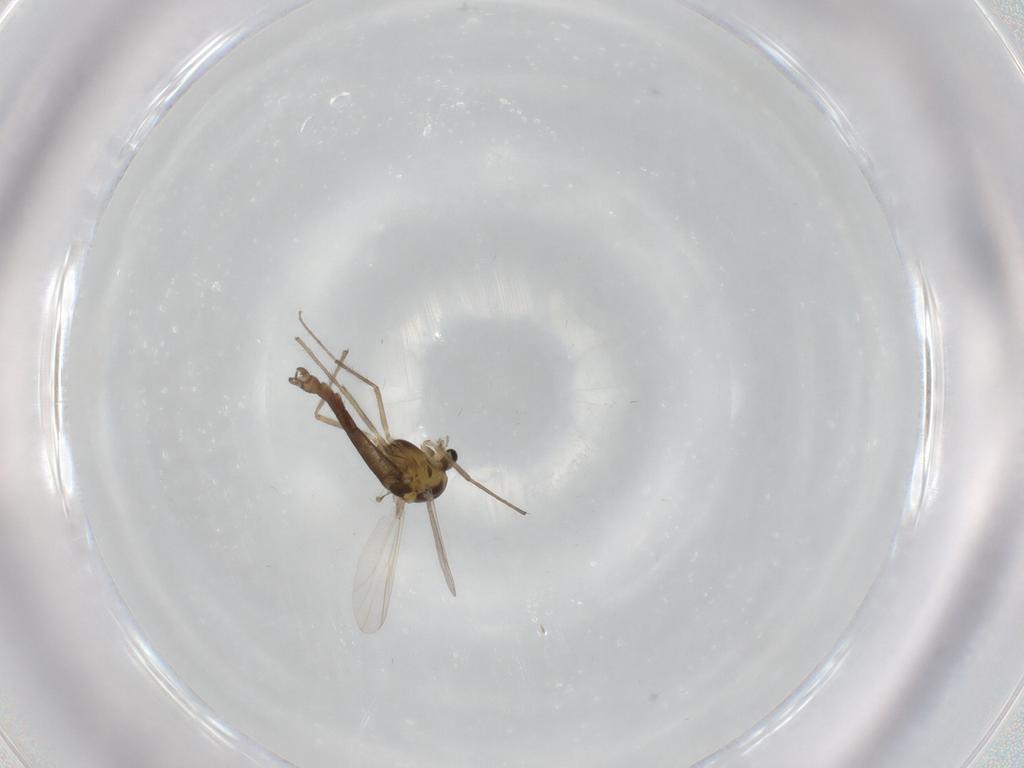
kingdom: Animalia
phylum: Arthropoda
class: Insecta
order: Diptera
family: Chironomidae
